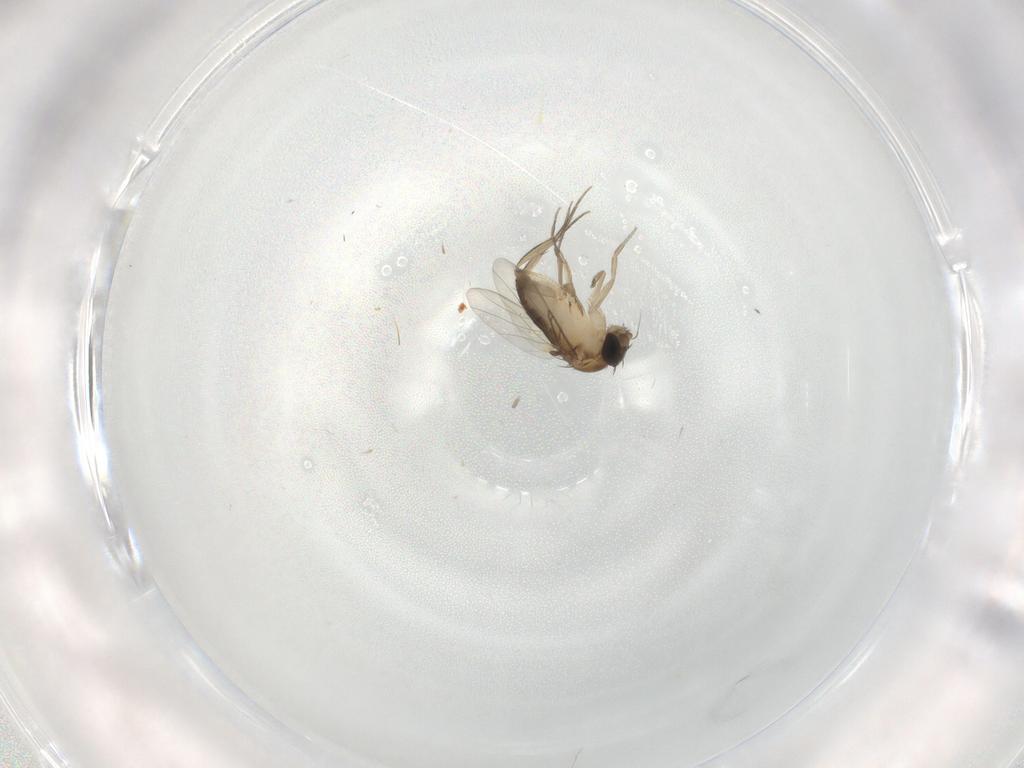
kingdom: Animalia
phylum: Arthropoda
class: Insecta
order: Diptera
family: Phoridae
